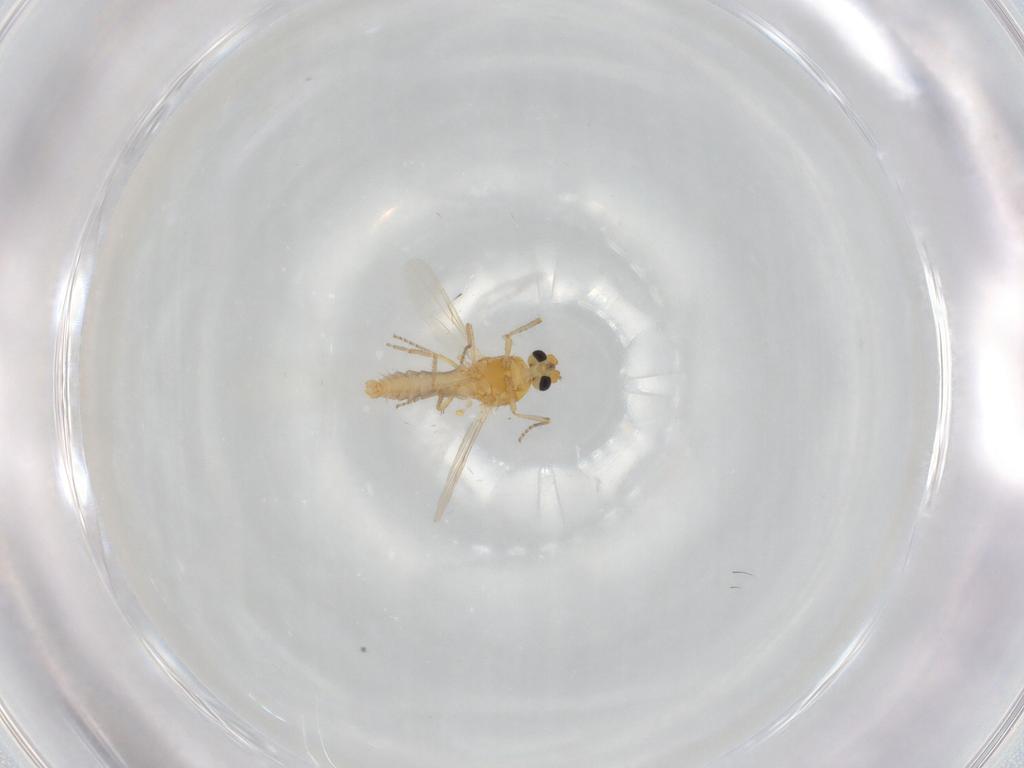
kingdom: Animalia
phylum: Arthropoda
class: Insecta
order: Diptera
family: Ceratopogonidae
